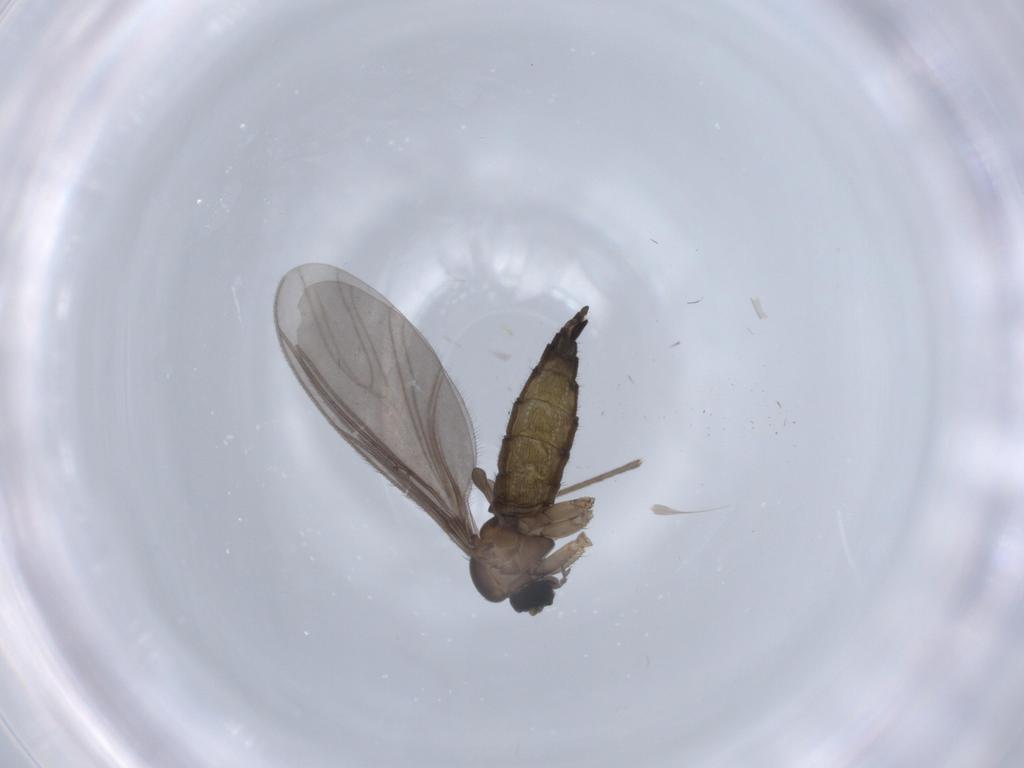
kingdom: Animalia
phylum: Arthropoda
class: Insecta
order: Diptera
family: Sciaridae
